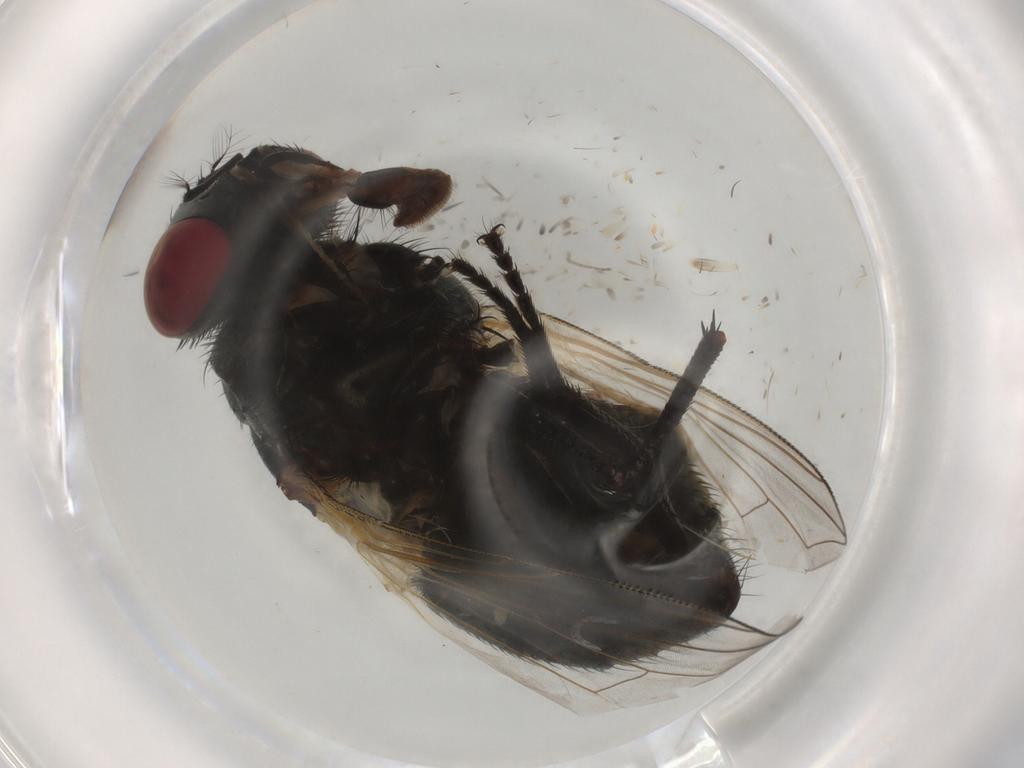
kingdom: Animalia
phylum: Arthropoda
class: Insecta
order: Diptera
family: Chironomidae
